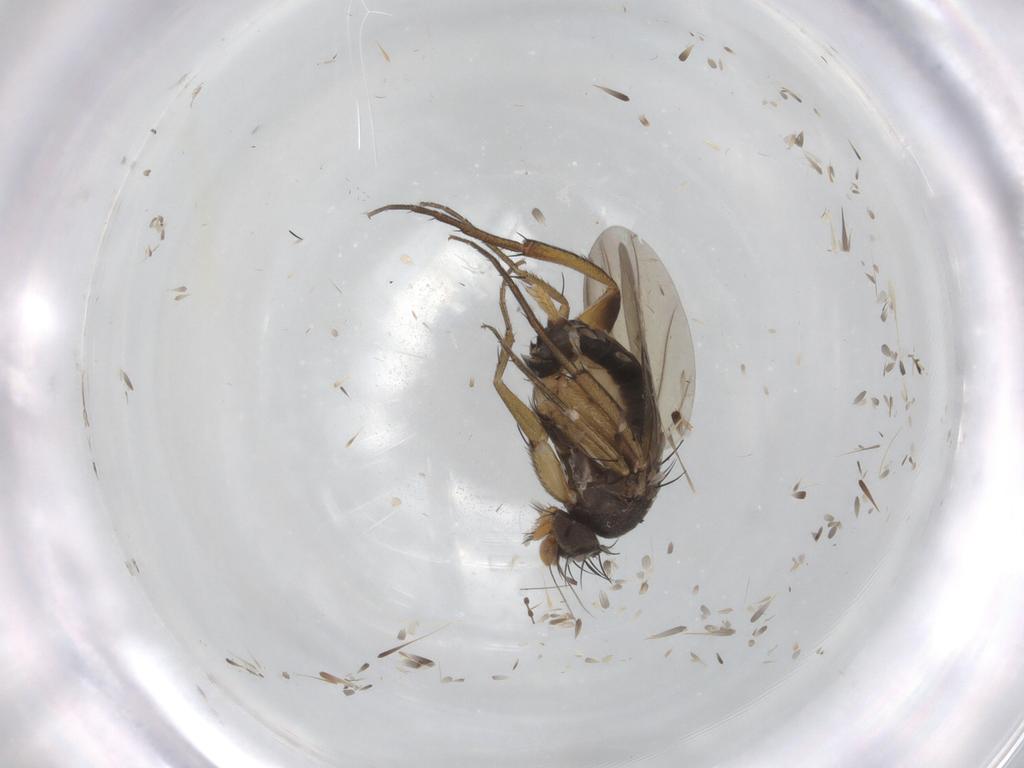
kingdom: Animalia
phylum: Arthropoda
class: Insecta
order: Diptera
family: Phoridae
